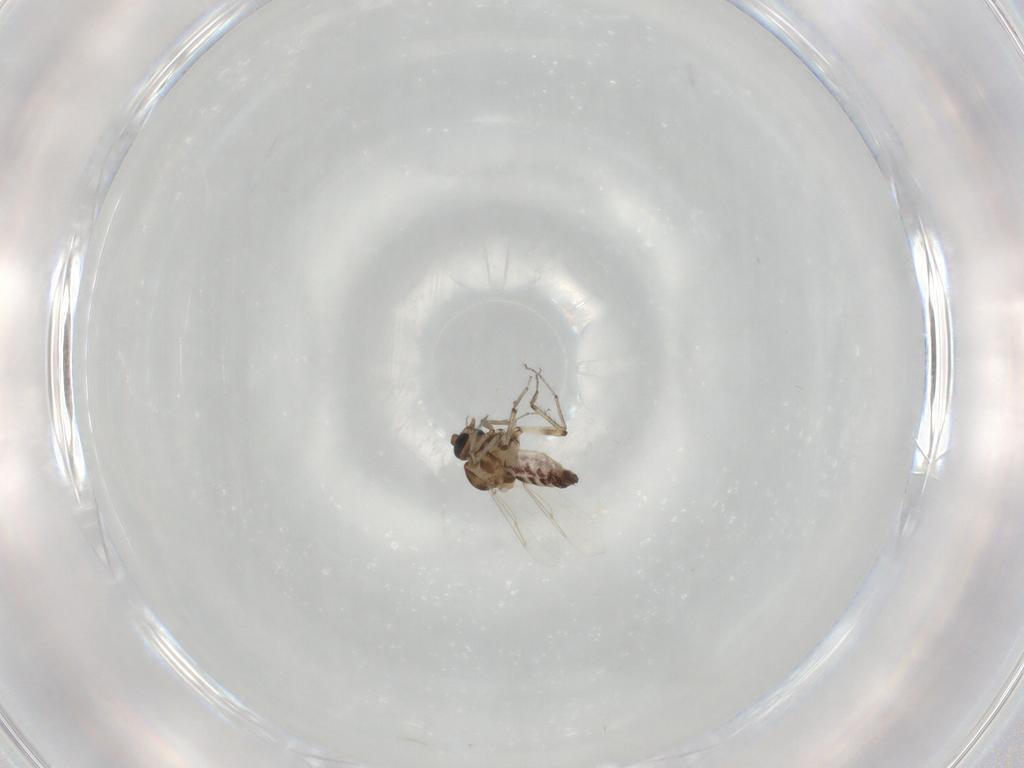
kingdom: Animalia
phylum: Arthropoda
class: Insecta
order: Diptera
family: Ceratopogonidae
